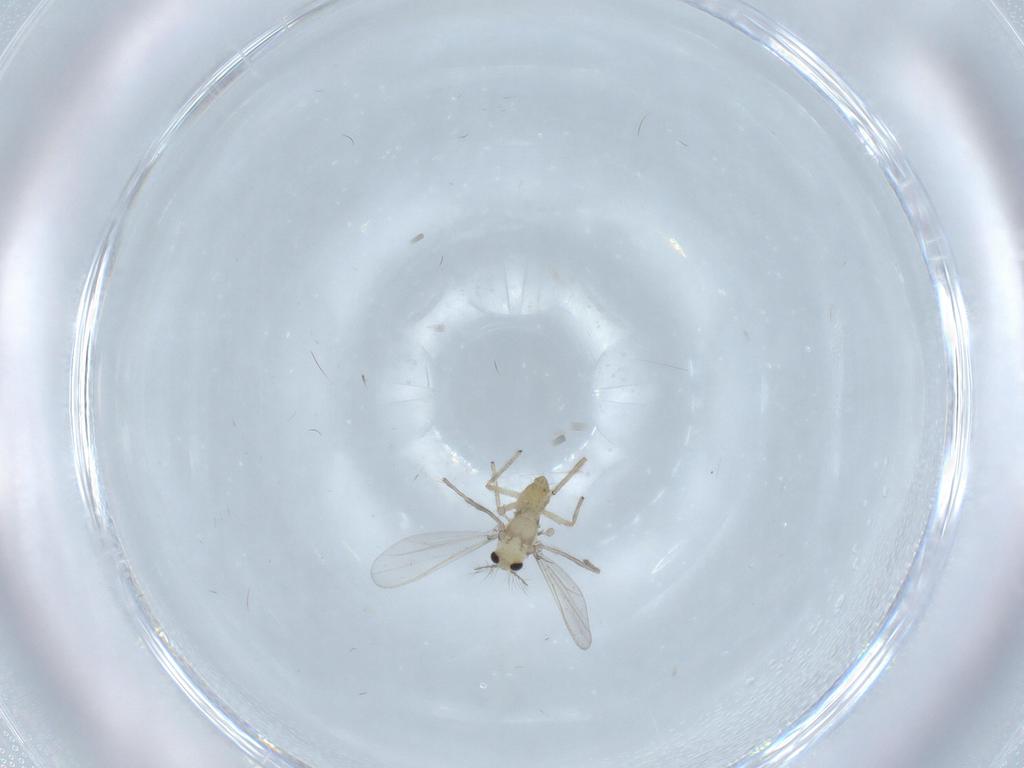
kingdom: Animalia
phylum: Arthropoda
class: Insecta
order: Diptera
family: Chironomidae
